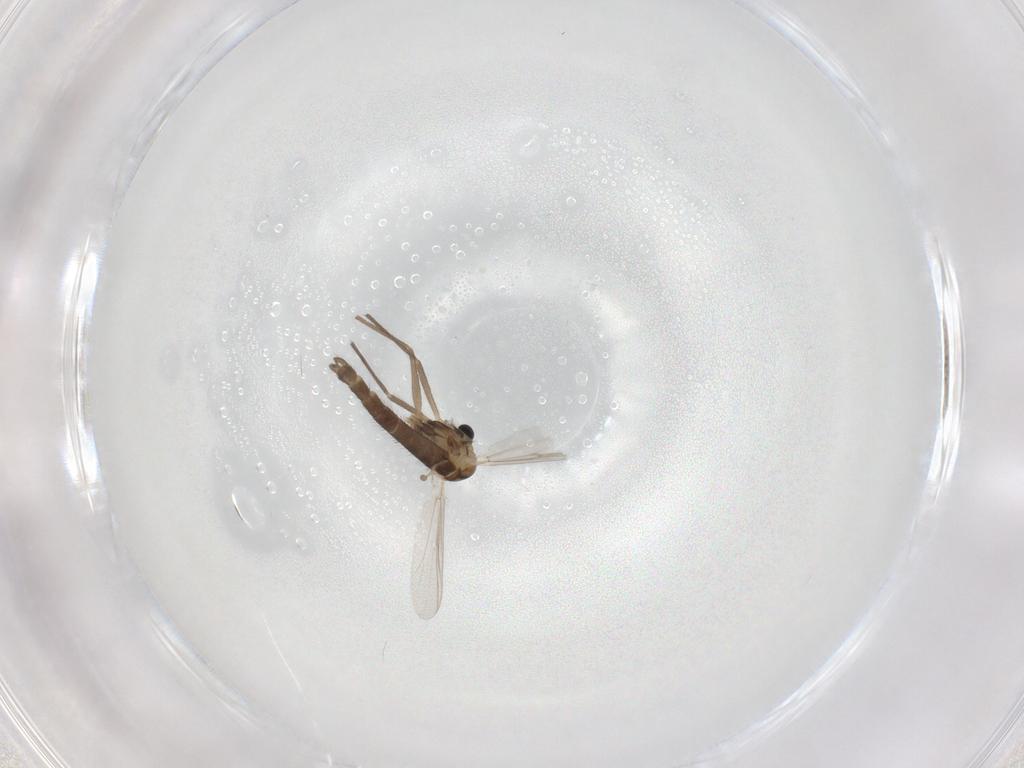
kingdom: Animalia
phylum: Arthropoda
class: Insecta
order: Diptera
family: Chironomidae
